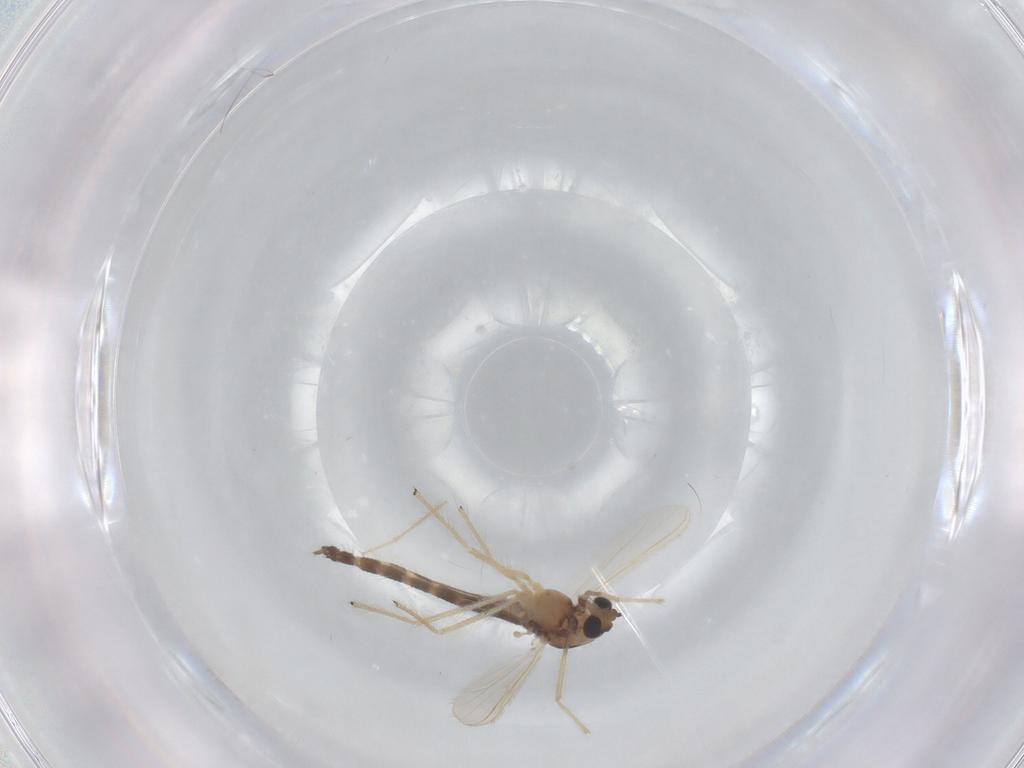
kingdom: Animalia
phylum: Arthropoda
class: Insecta
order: Diptera
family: Chironomidae
